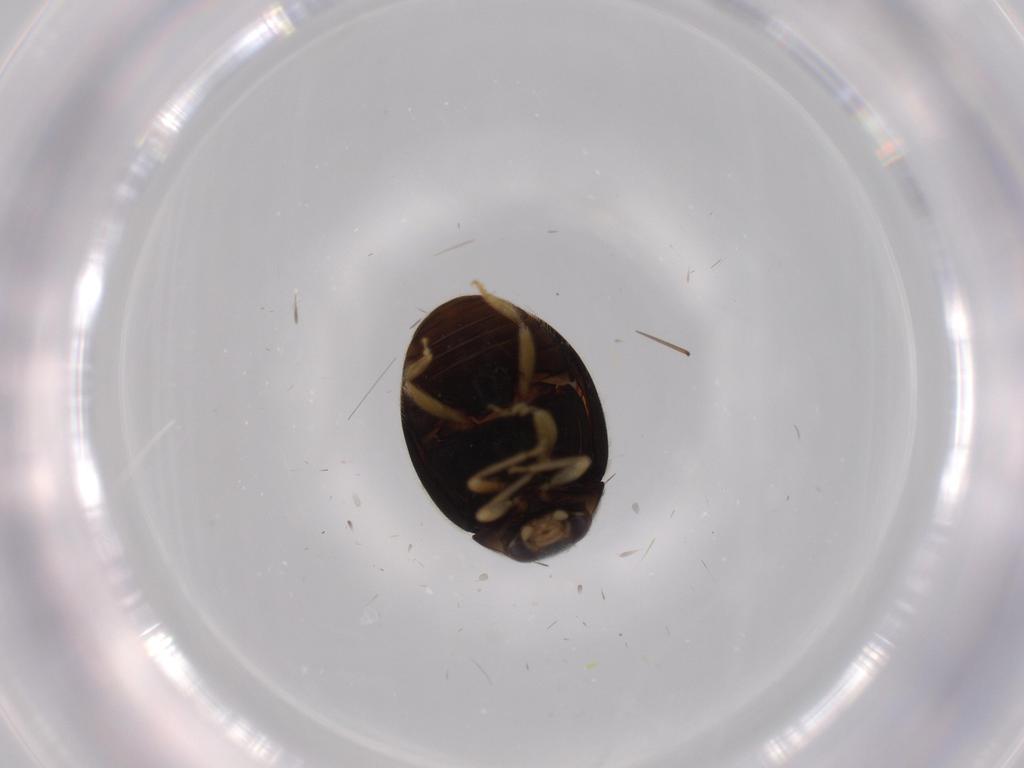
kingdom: Animalia
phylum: Arthropoda
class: Insecta
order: Coleoptera
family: Coccinellidae
